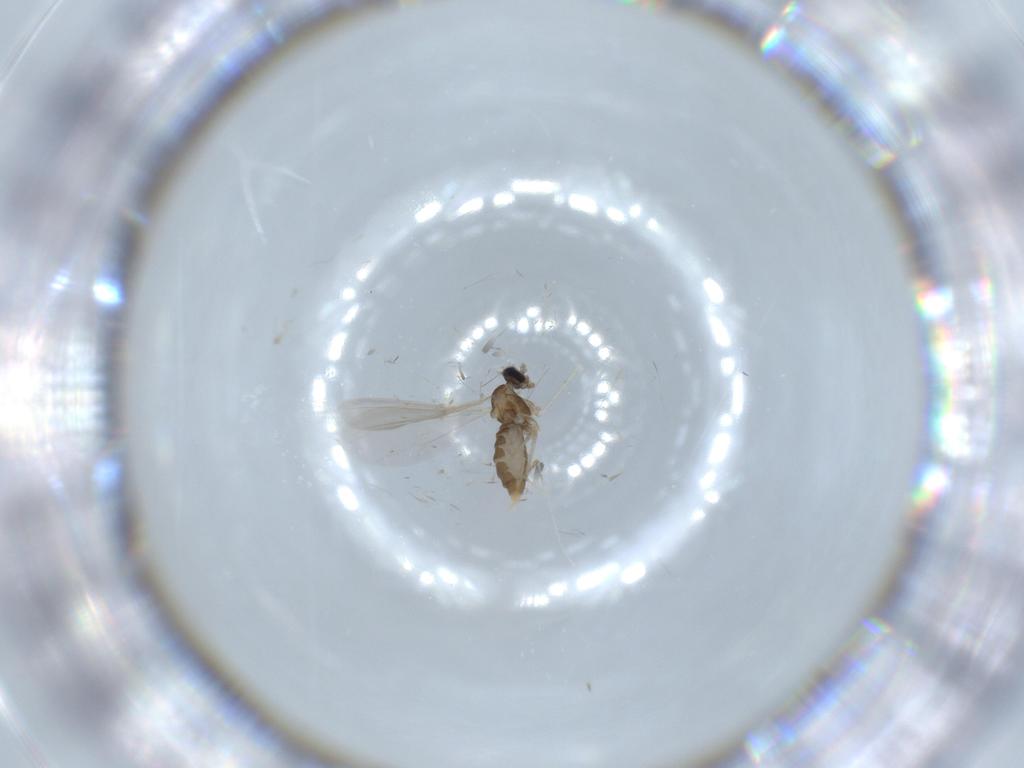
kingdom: Animalia
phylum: Arthropoda
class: Insecta
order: Diptera
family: Cecidomyiidae
